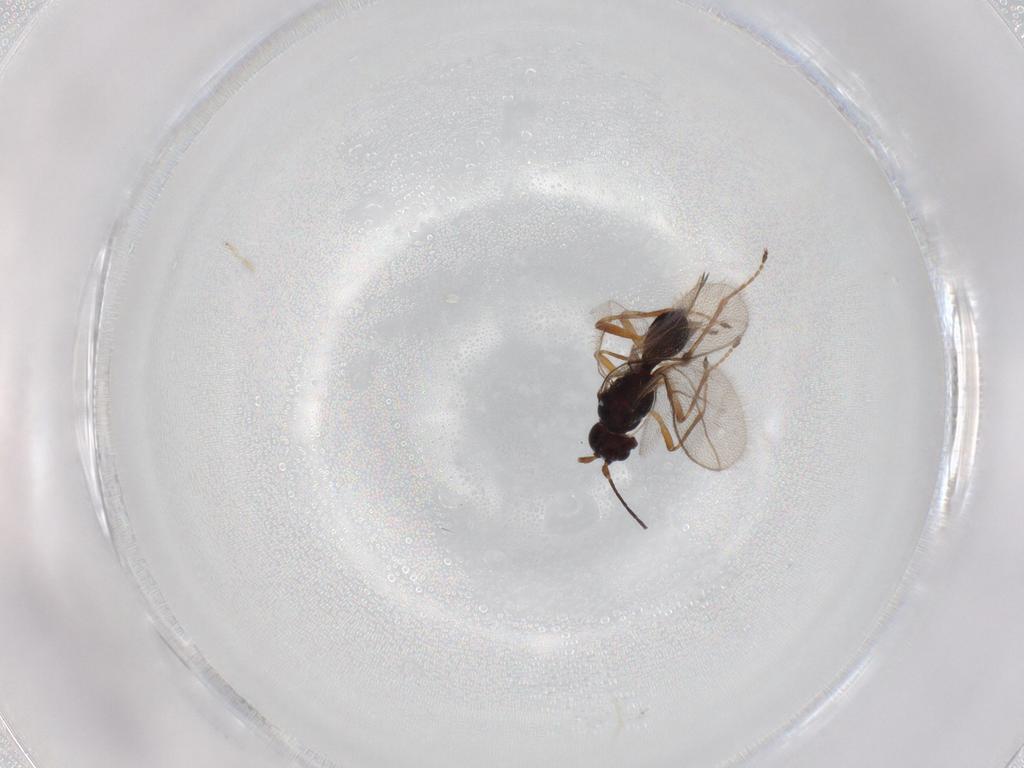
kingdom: Animalia
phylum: Arthropoda
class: Insecta
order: Hymenoptera
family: Braconidae
